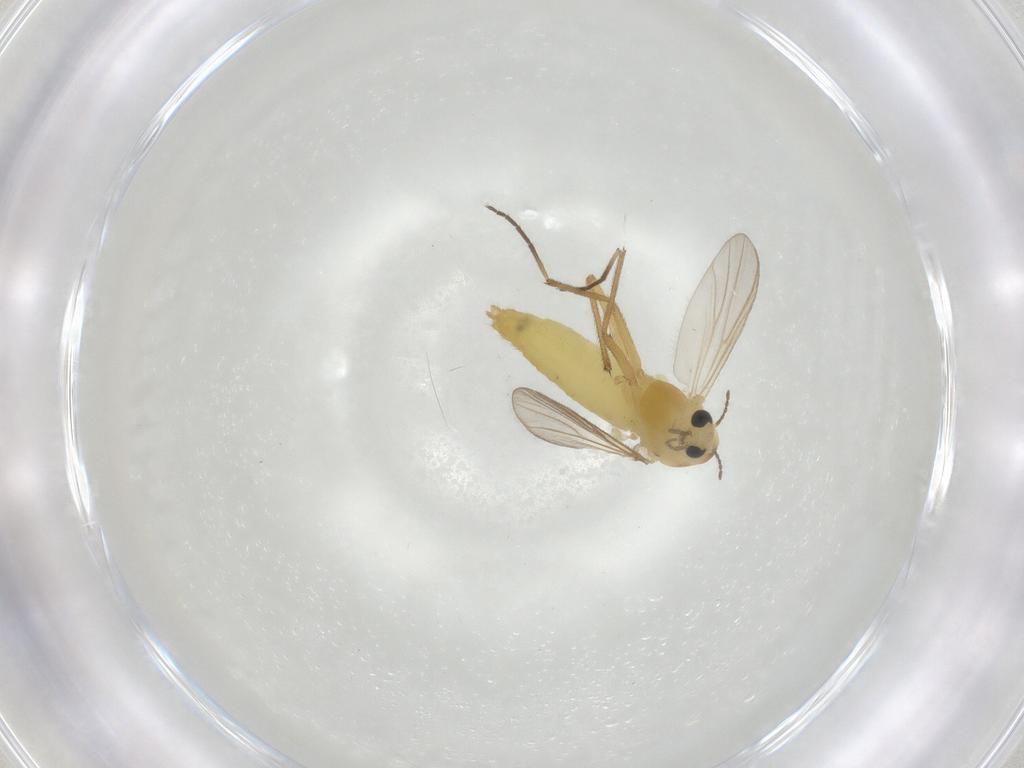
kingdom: Animalia
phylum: Arthropoda
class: Insecta
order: Diptera
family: Chironomidae
